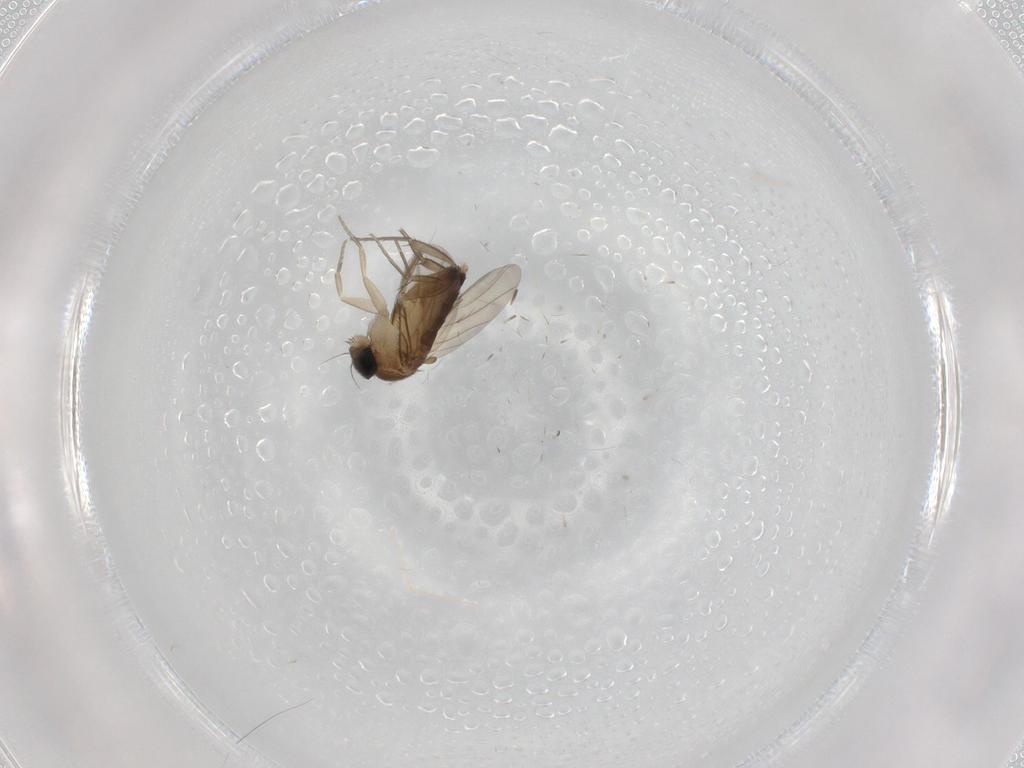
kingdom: Animalia
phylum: Arthropoda
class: Insecta
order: Diptera
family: Phoridae
